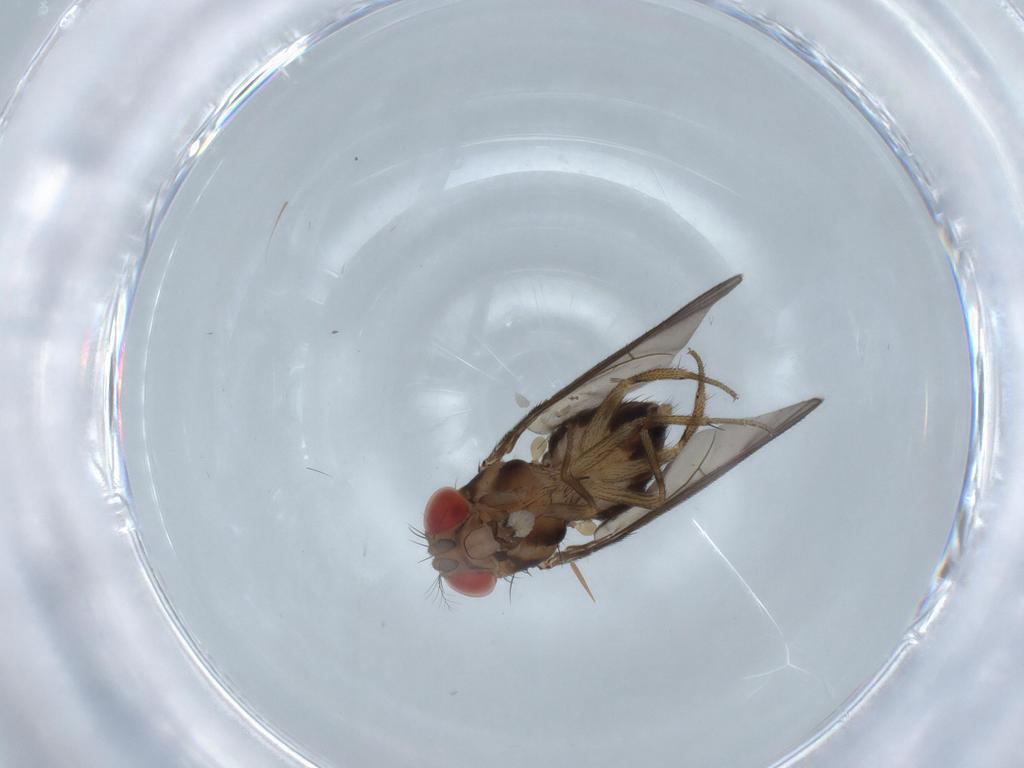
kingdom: Animalia
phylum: Arthropoda
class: Insecta
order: Diptera
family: Drosophilidae
